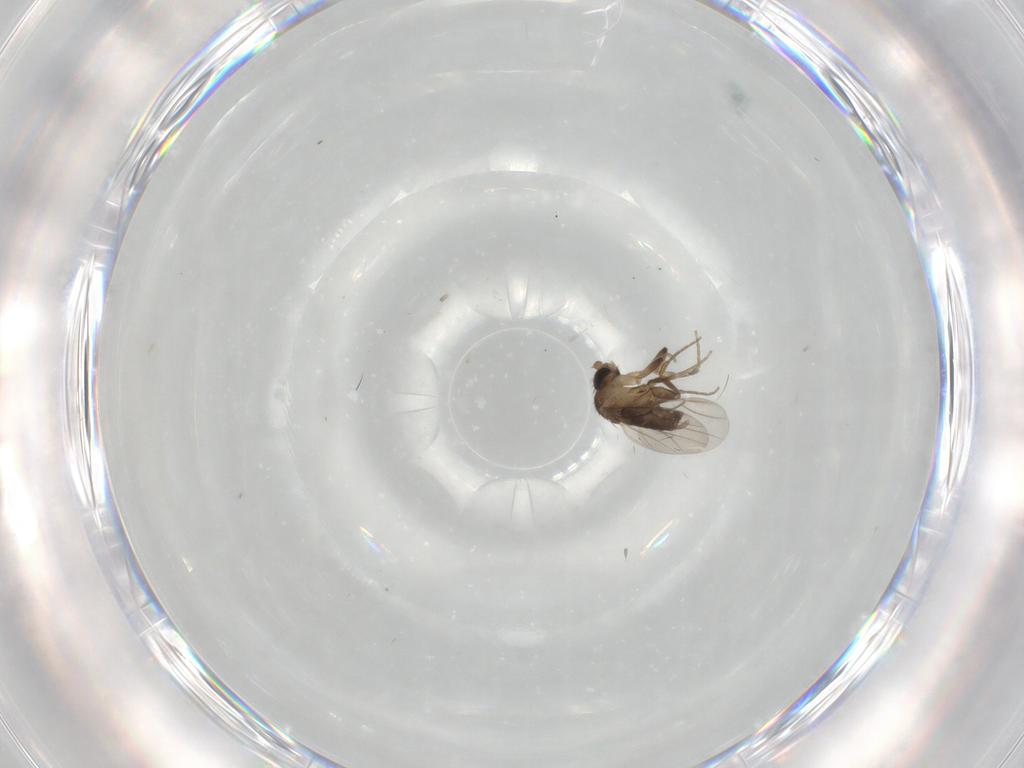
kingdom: Animalia
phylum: Arthropoda
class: Insecta
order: Diptera
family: Phoridae
